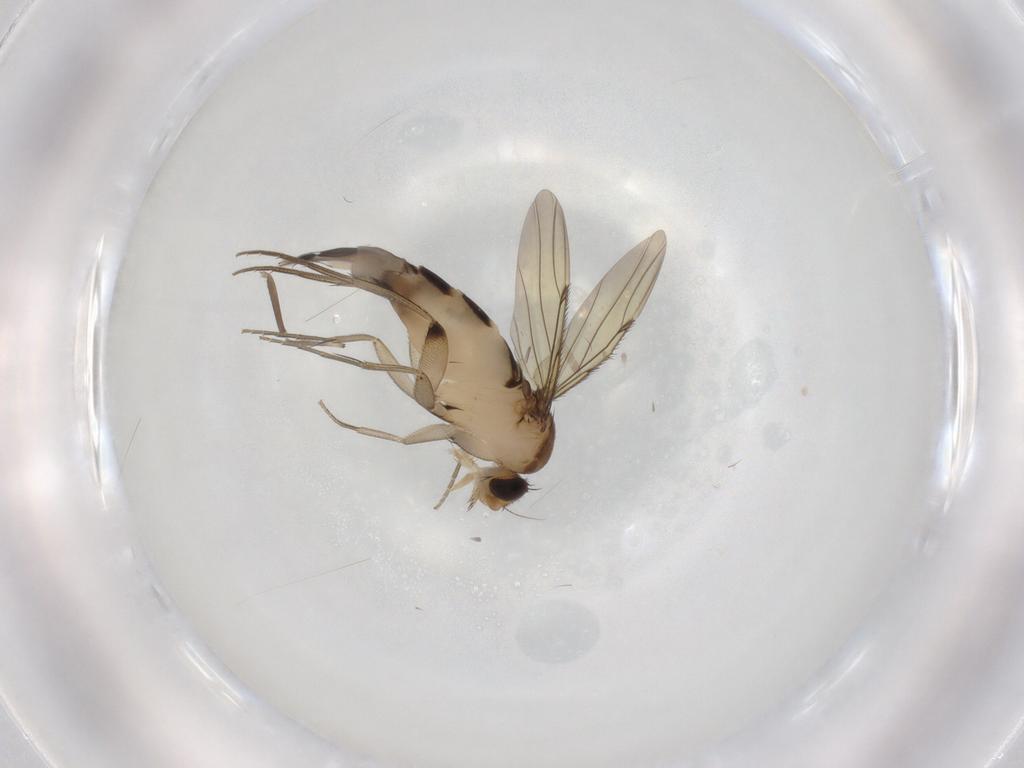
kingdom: Animalia
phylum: Arthropoda
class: Insecta
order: Diptera
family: Phoridae
